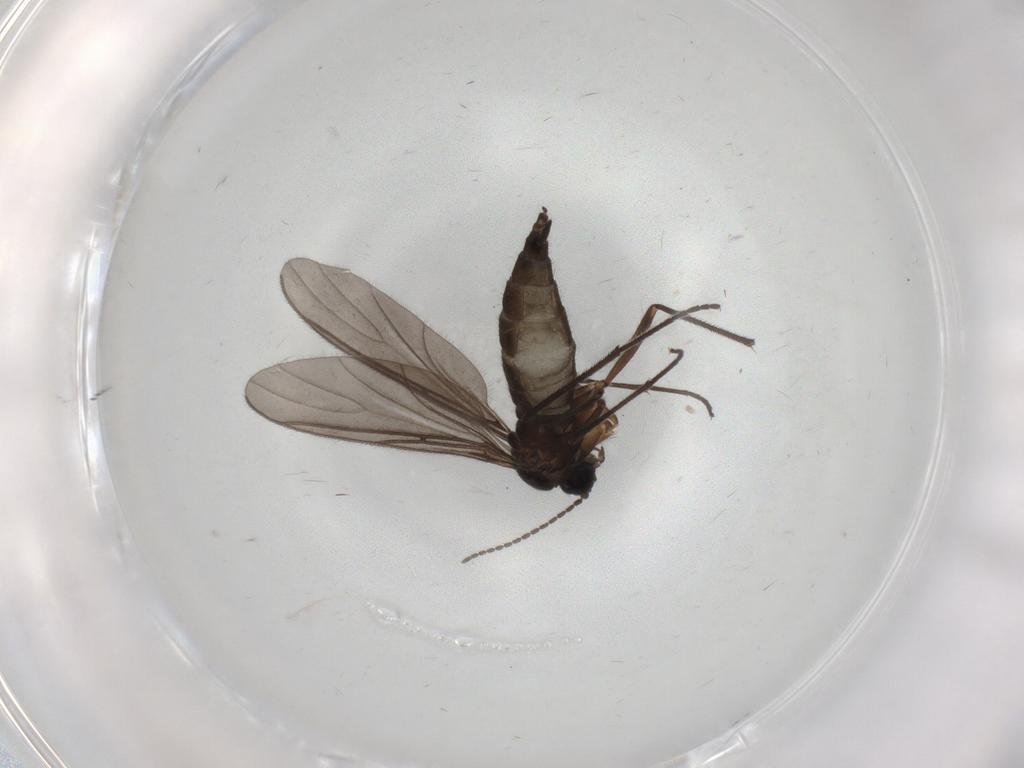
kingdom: Animalia
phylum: Arthropoda
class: Insecta
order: Diptera
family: Sciaridae
